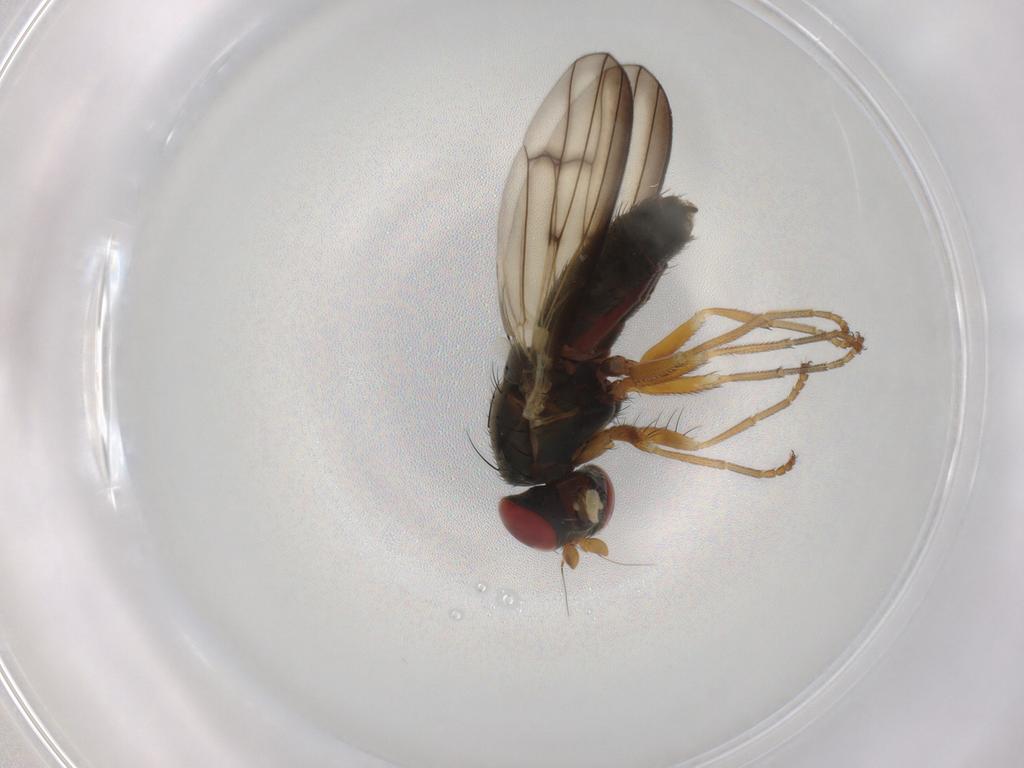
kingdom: Animalia
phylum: Arthropoda
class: Insecta
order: Diptera
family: Chamaemyiidae
